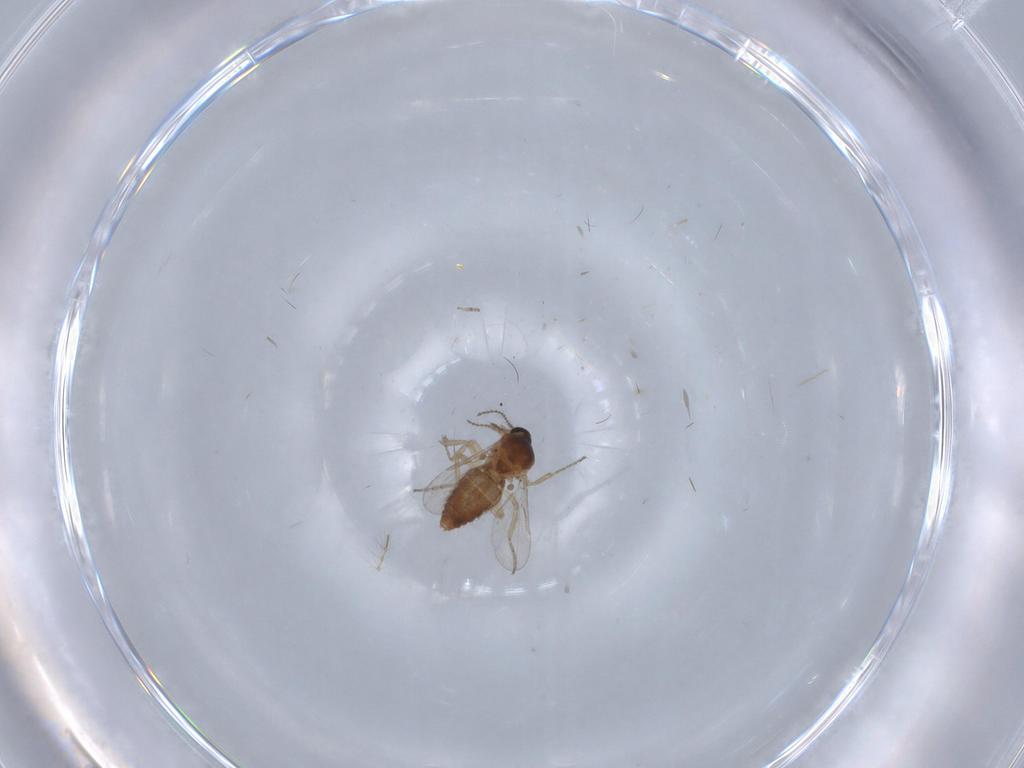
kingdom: Animalia
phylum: Arthropoda
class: Insecta
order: Diptera
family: Ceratopogonidae
